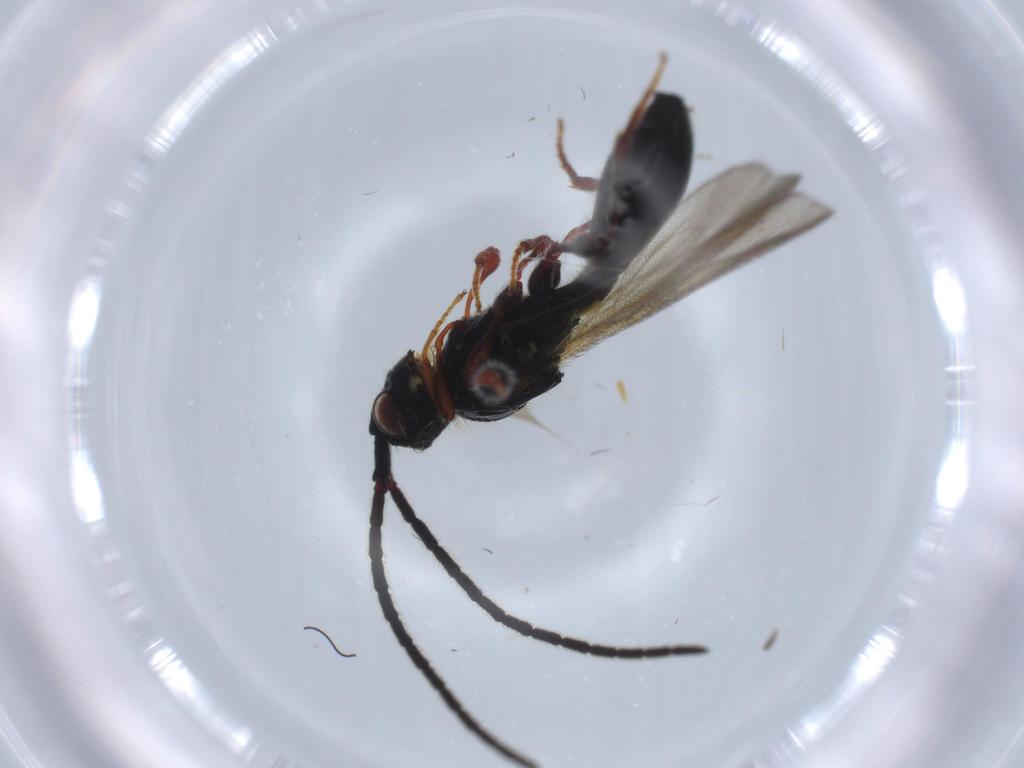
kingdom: Animalia
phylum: Arthropoda
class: Insecta
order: Hymenoptera
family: Diapriidae
